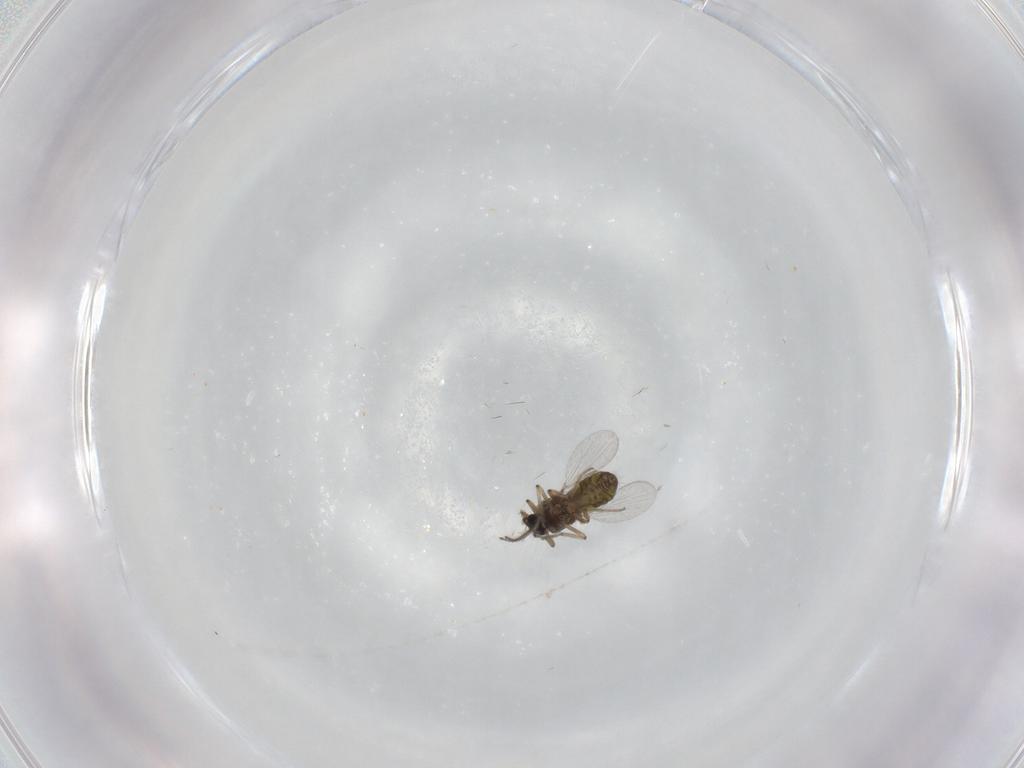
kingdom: Animalia
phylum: Arthropoda
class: Insecta
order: Diptera
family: Ceratopogonidae
